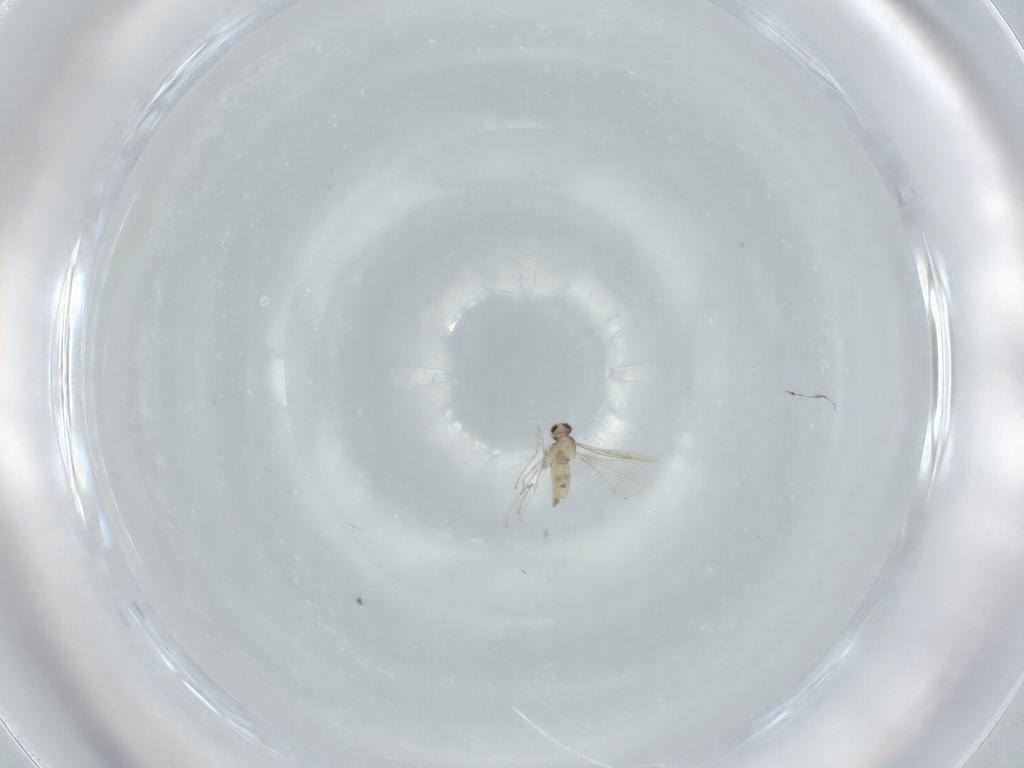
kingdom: Animalia
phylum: Arthropoda
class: Insecta
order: Diptera
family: Cecidomyiidae
